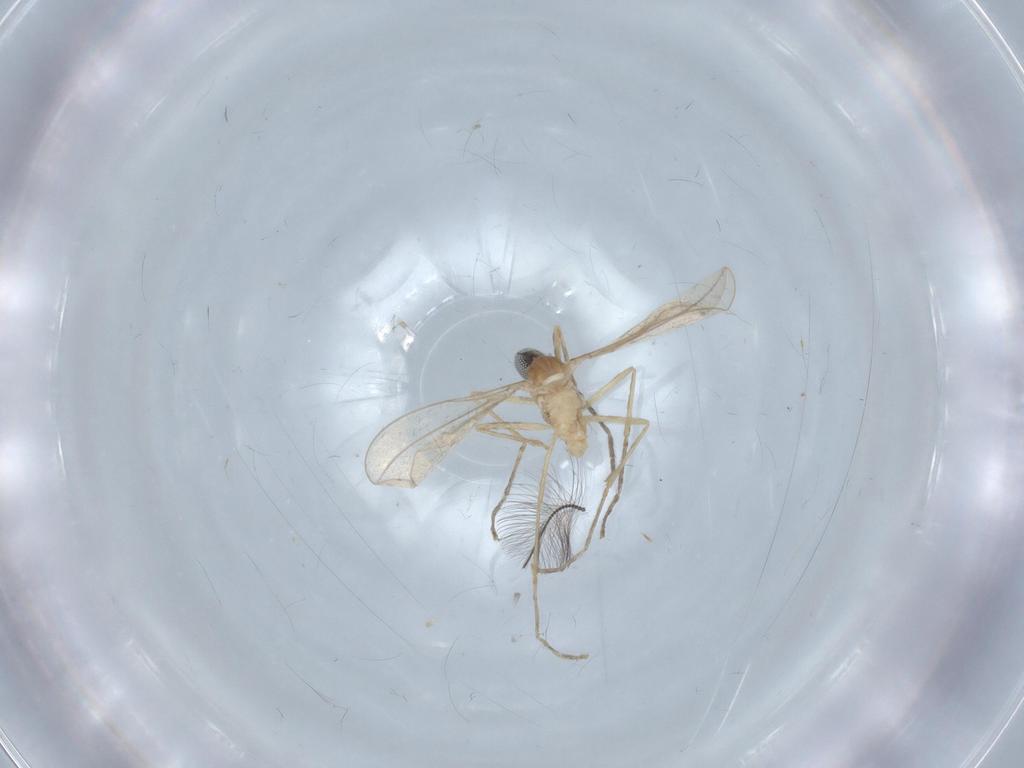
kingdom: Animalia
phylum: Arthropoda
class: Insecta
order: Diptera
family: Cecidomyiidae
